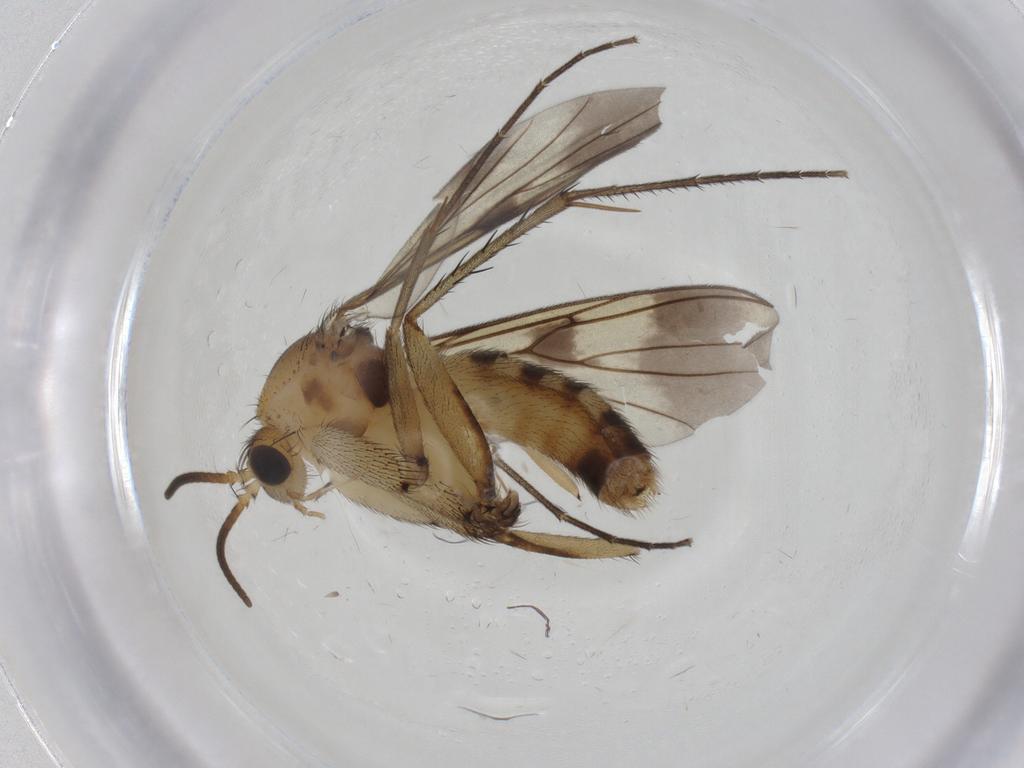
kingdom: Animalia
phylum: Arthropoda
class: Insecta
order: Diptera
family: Mycetophilidae
